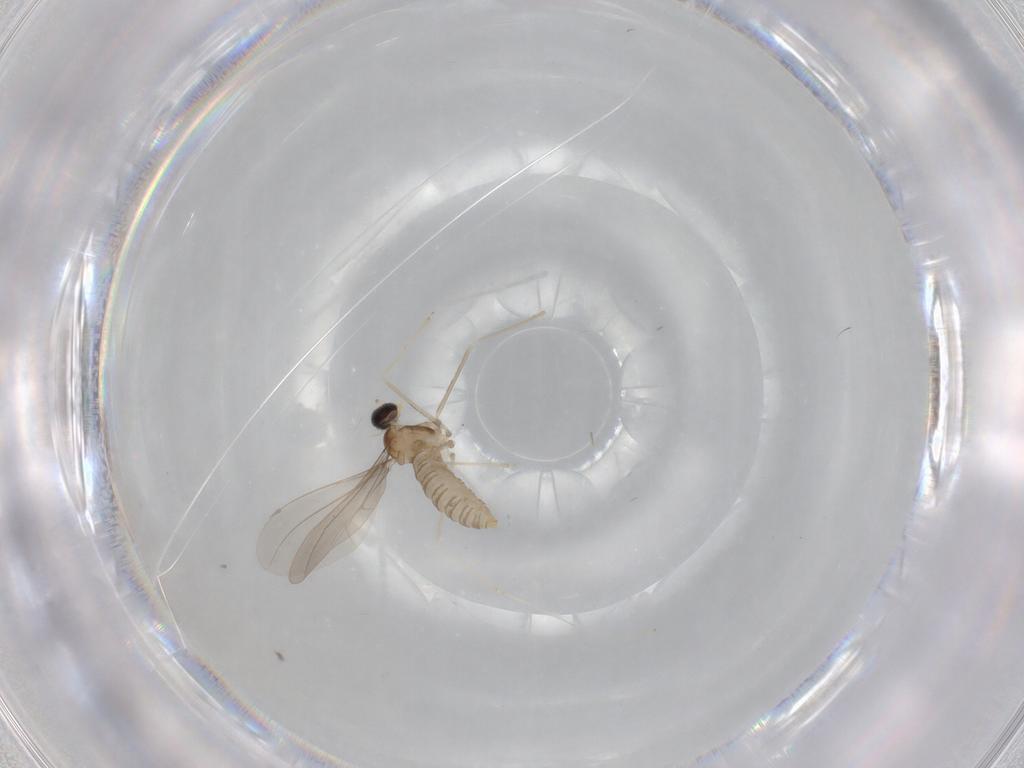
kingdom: Animalia
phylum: Arthropoda
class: Insecta
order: Diptera
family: Cecidomyiidae
